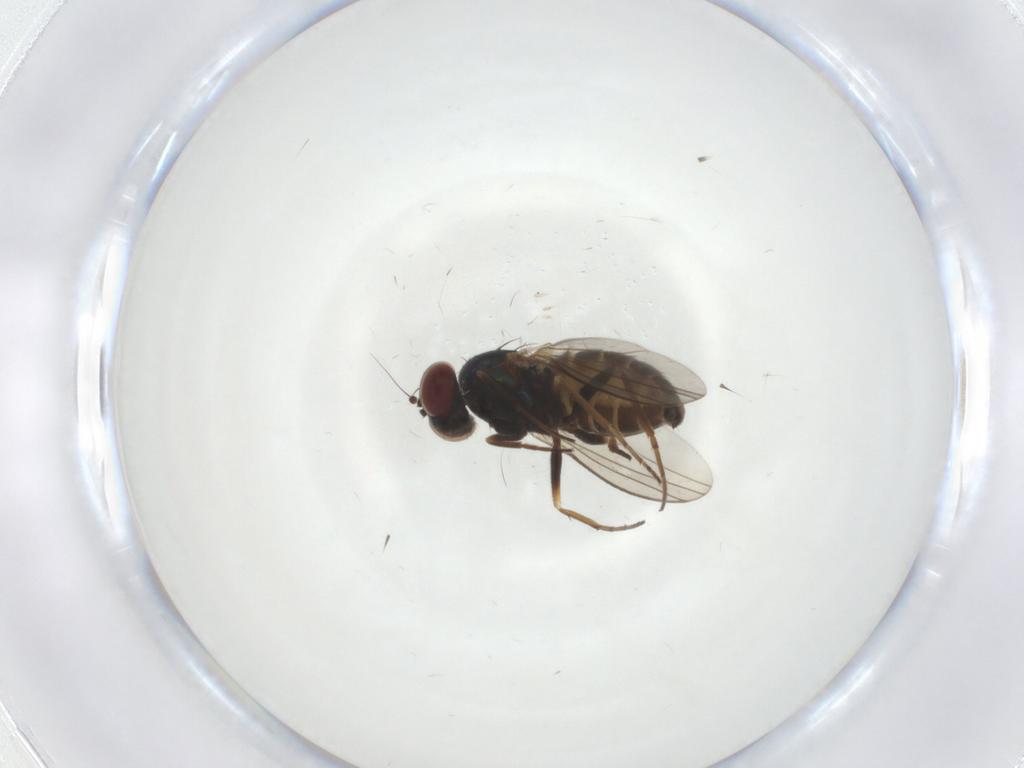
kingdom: Animalia
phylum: Arthropoda
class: Insecta
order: Diptera
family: Dolichopodidae
